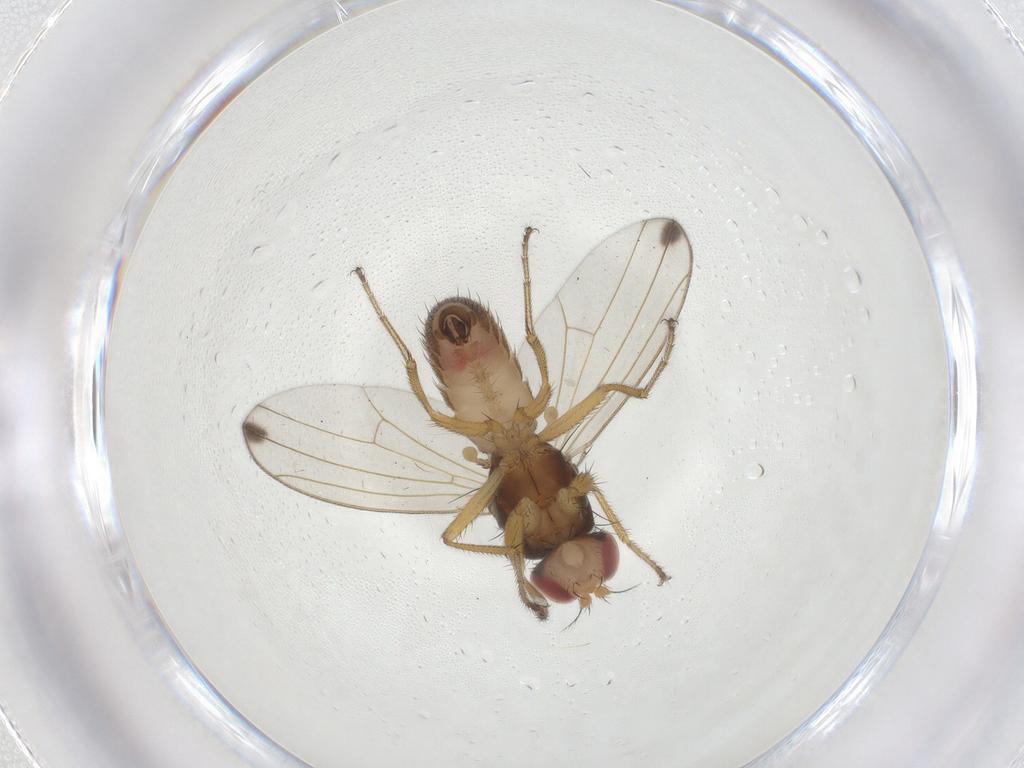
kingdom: Animalia
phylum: Arthropoda
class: Insecta
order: Diptera
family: Drosophilidae
